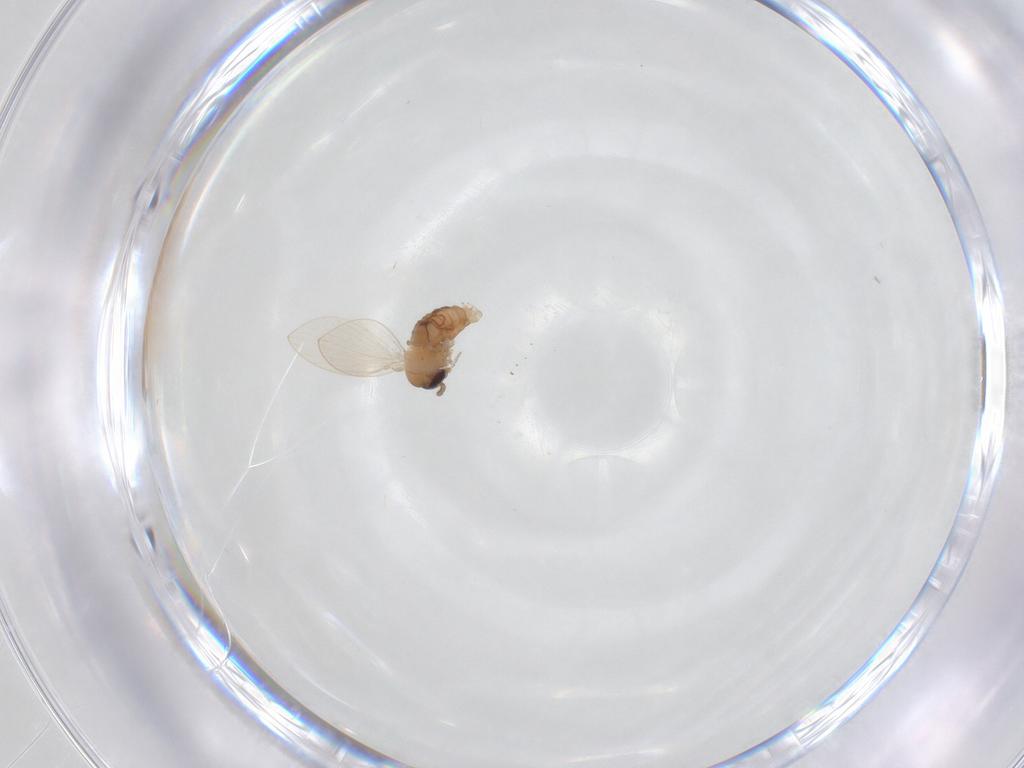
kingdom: Animalia
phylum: Arthropoda
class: Insecta
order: Diptera
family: Psychodidae
